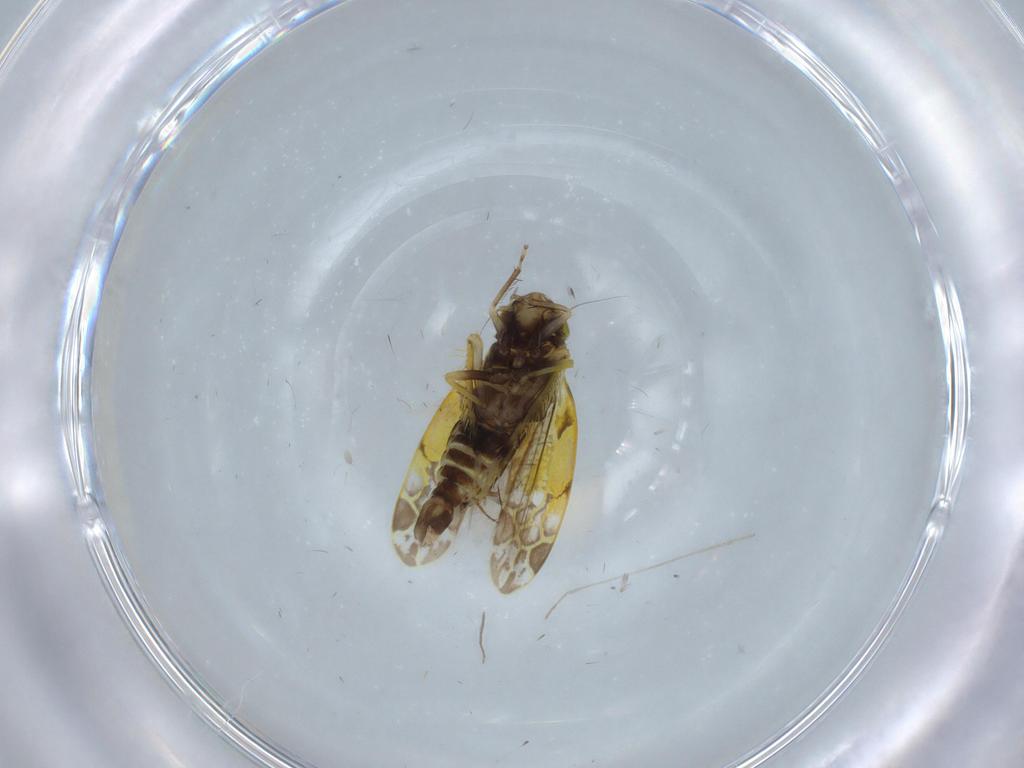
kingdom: Animalia
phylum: Arthropoda
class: Insecta
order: Hemiptera
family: Cicadellidae
